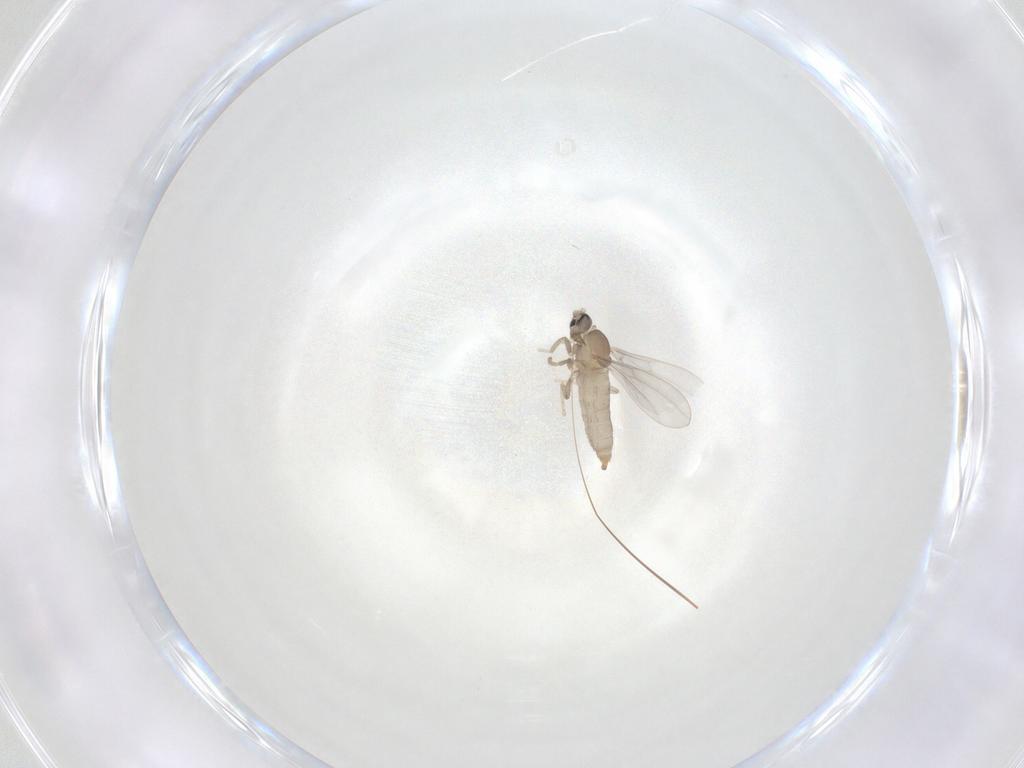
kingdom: Animalia
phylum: Arthropoda
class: Insecta
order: Diptera
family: Cecidomyiidae
